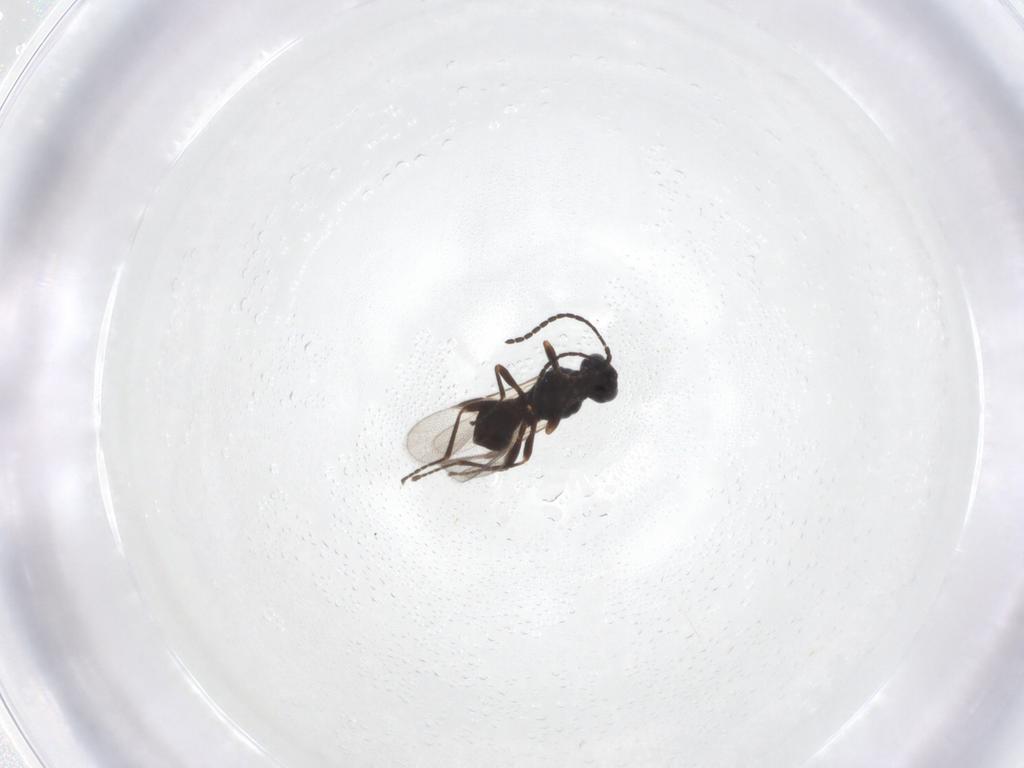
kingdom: Animalia
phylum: Arthropoda
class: Insecta
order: Hymenoptera
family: Braconidae
